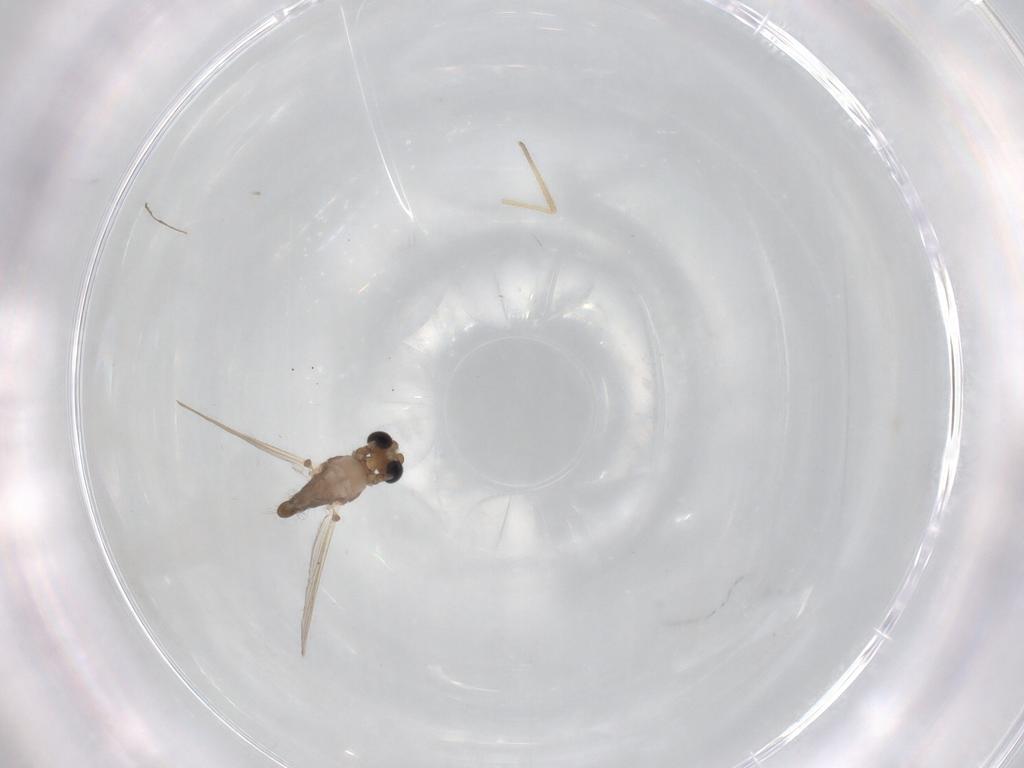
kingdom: Animalia
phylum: Arthropoda
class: Insecta
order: Diptera
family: Chironomidae
